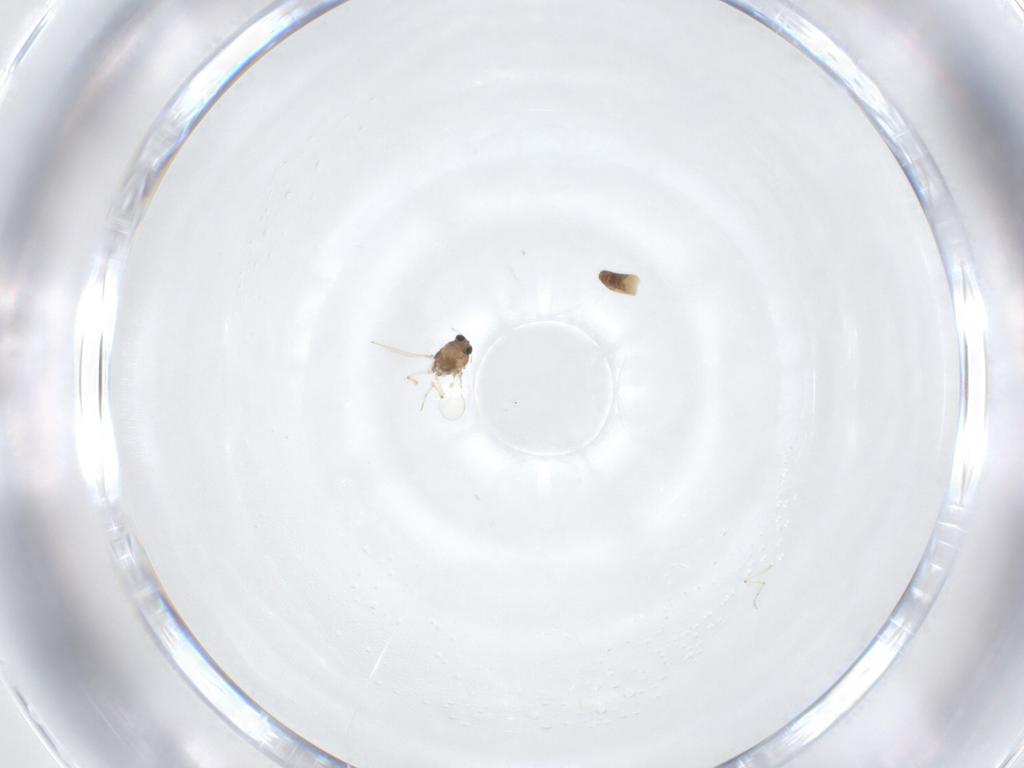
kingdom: Animalia
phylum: Arthropoda
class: Insecta
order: Diptera
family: Chironomidae
